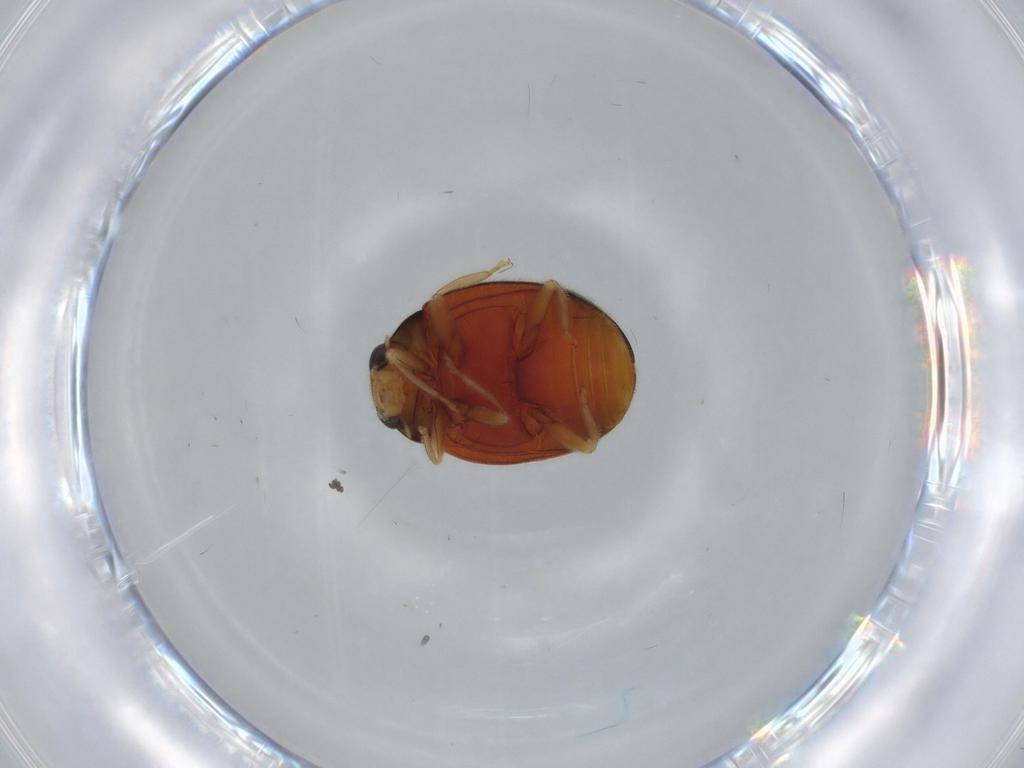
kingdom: Animalia
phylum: Arthropoda
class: Insecta
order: Coleoptera
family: Coccinellidae
